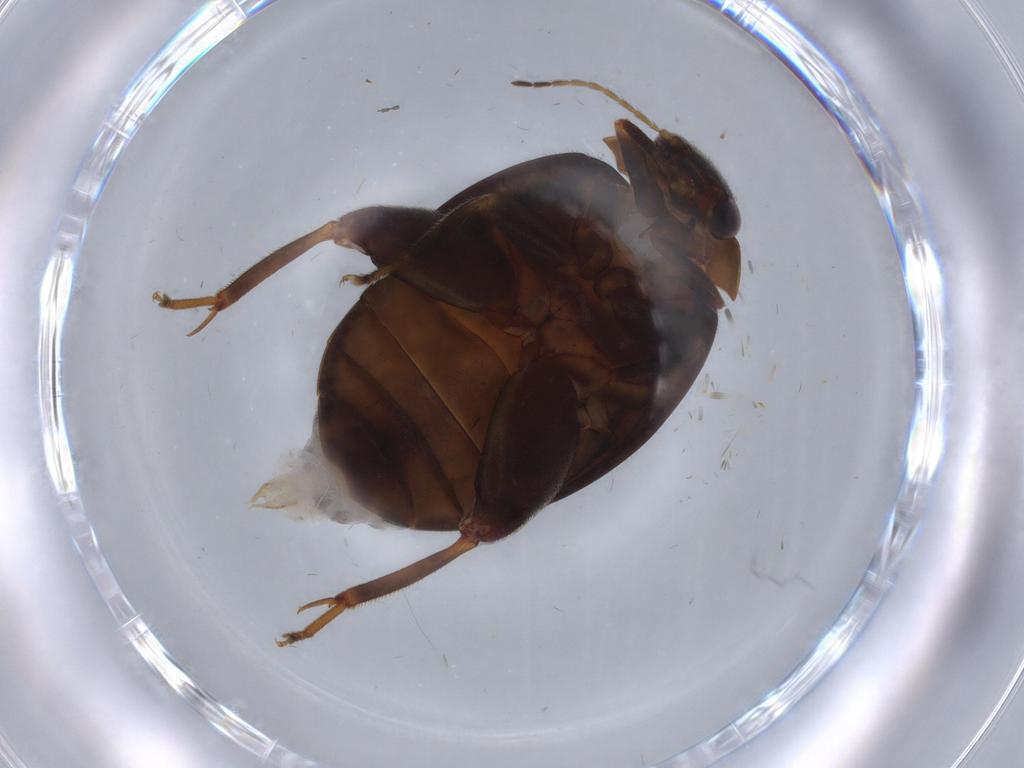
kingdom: Animalia
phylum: Arthropoda
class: Insecta
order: Coleoptera
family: Scirtidae
